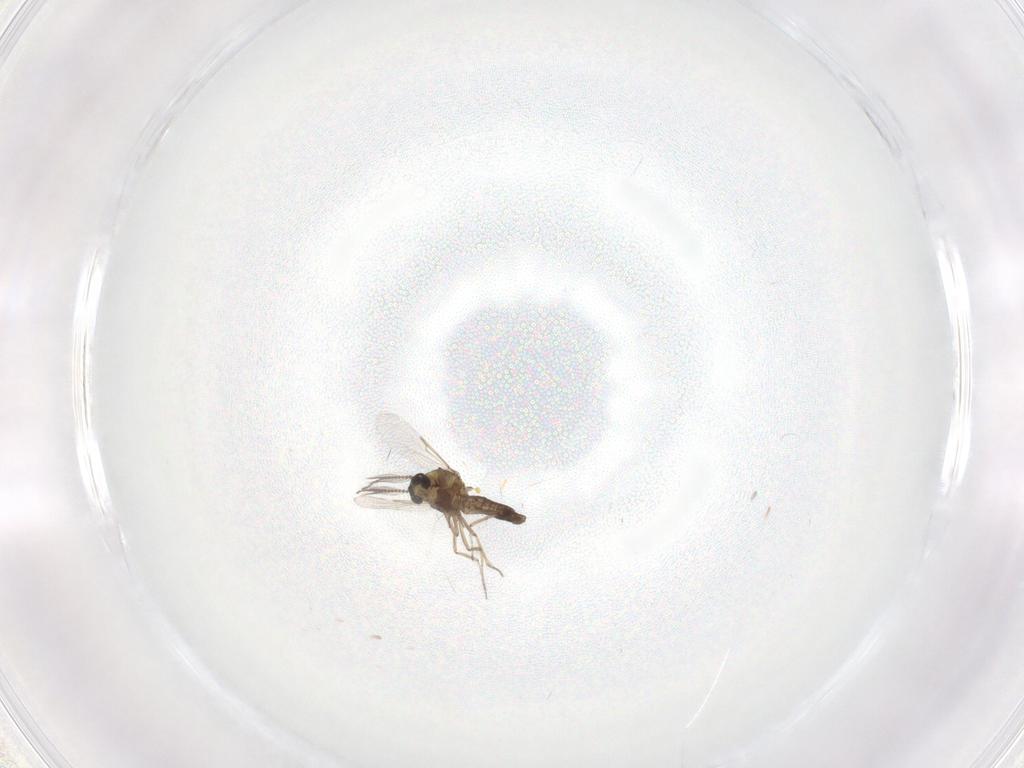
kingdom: Animalia
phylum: Arthropoda
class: Insecta
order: Diptera
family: Ceratopogonidae
